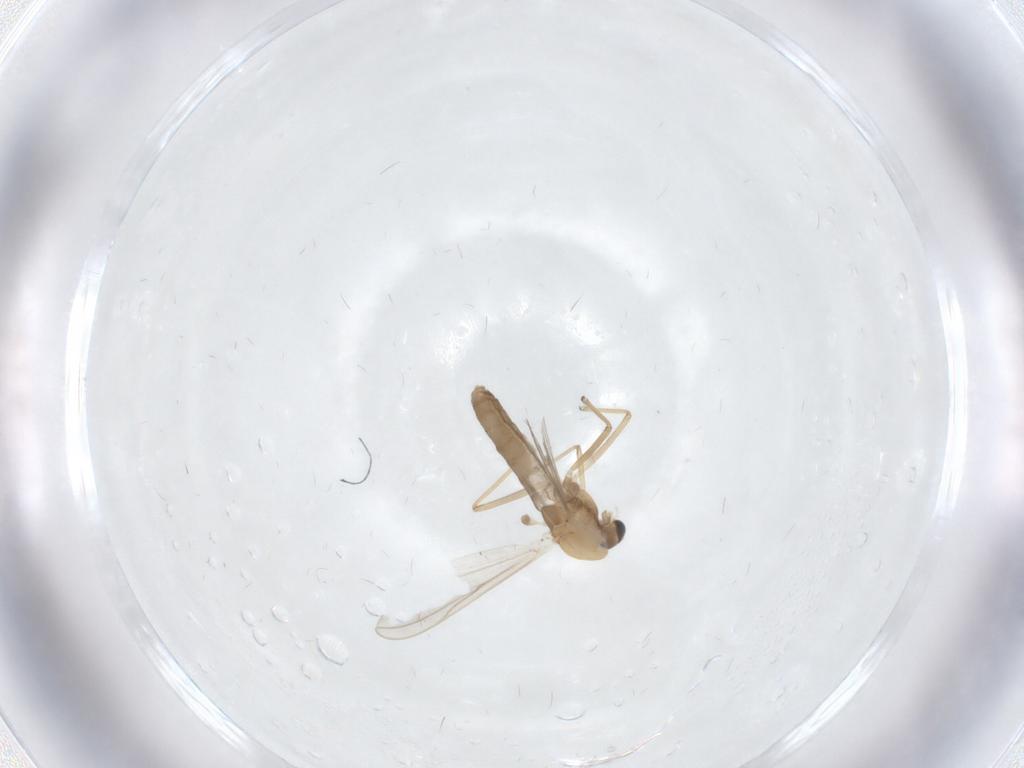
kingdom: Animalia
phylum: Arthropoda
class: Insecta
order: Diptera
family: Chironomidae
